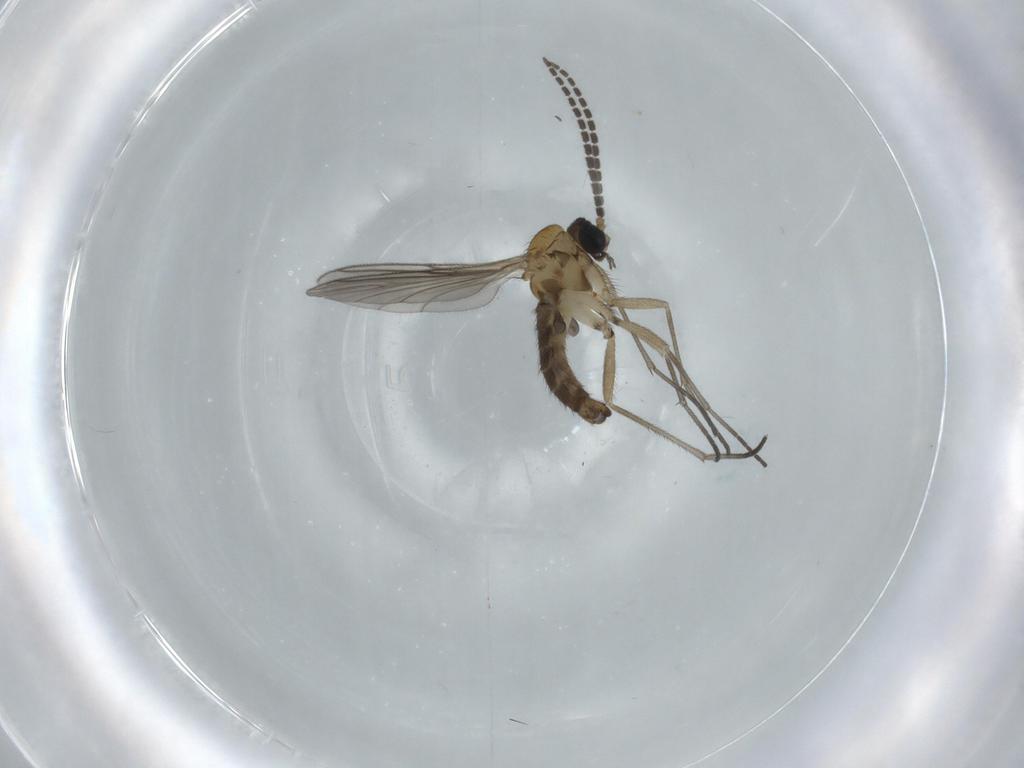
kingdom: Animalia
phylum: Arthropoda
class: Insecta
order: Diptera
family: Sciaridae
